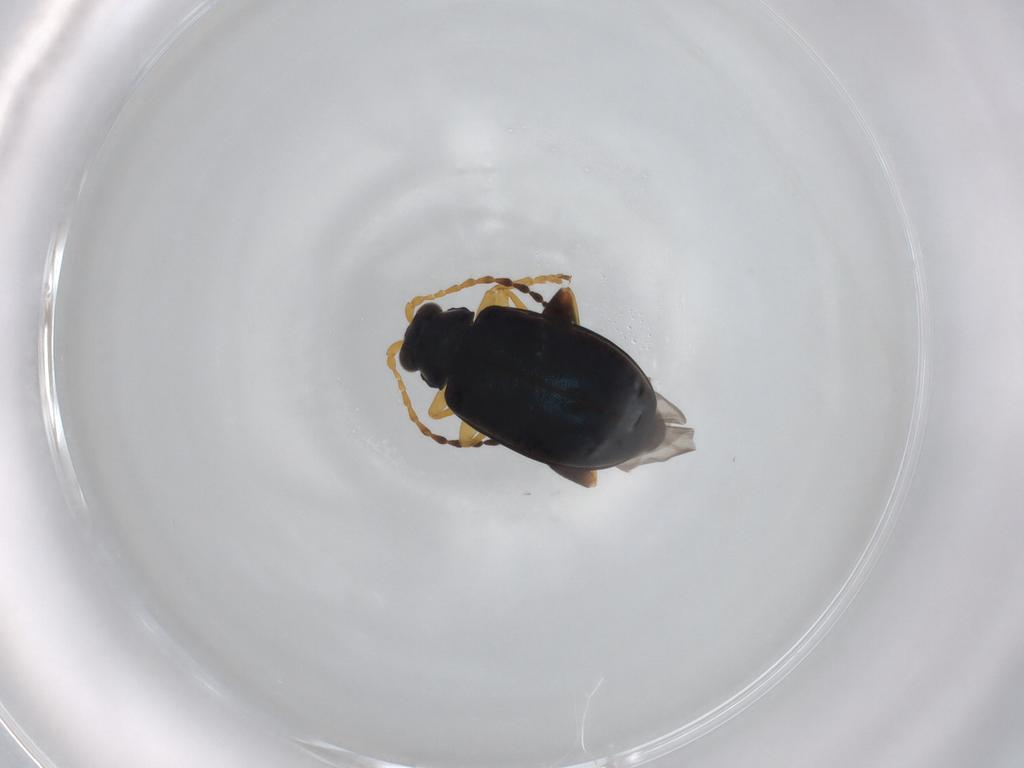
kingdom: Animalia
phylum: Arthropoda
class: Insecta
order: Coleoptera
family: Chrysomelidae
